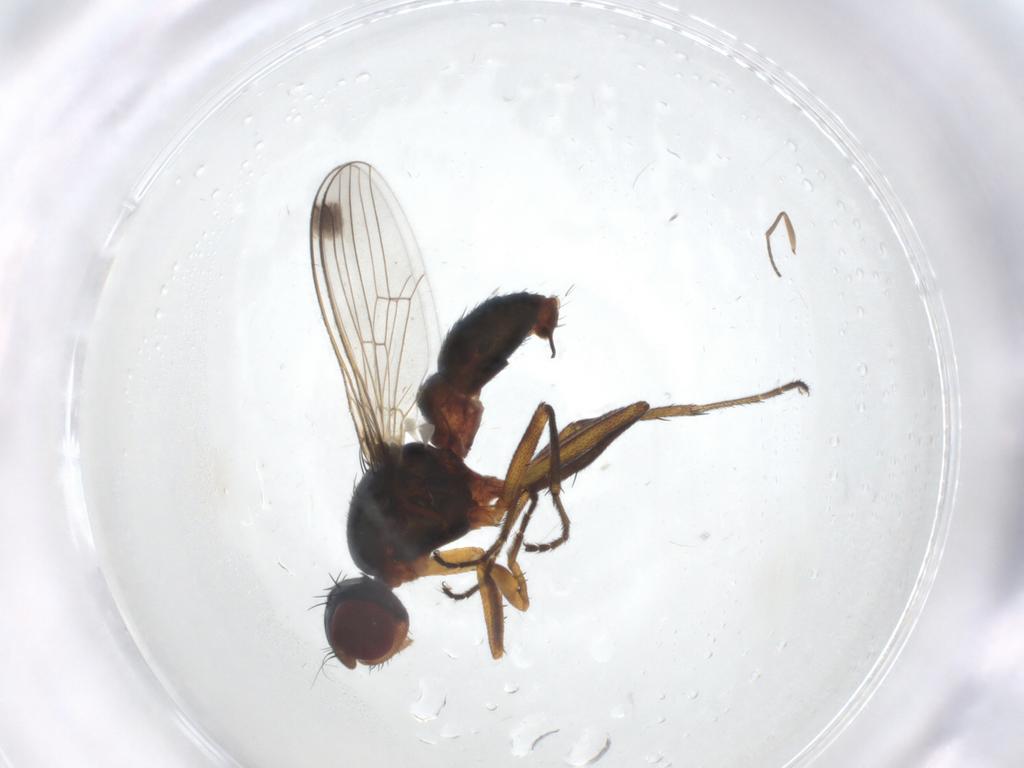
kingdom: Animalia
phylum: Arthropoda
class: Insecta
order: Diptera
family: Sepsidae
